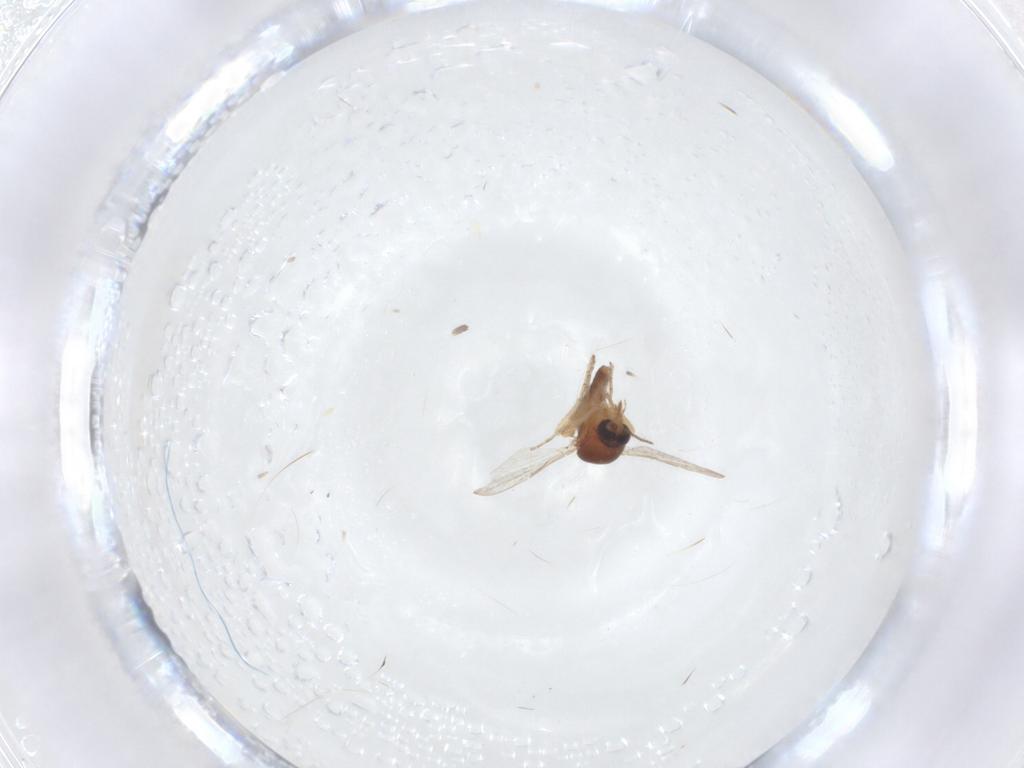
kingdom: Animalia
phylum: Arthropoda
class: Insecta
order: Diptera
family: Ceratopogonidae
